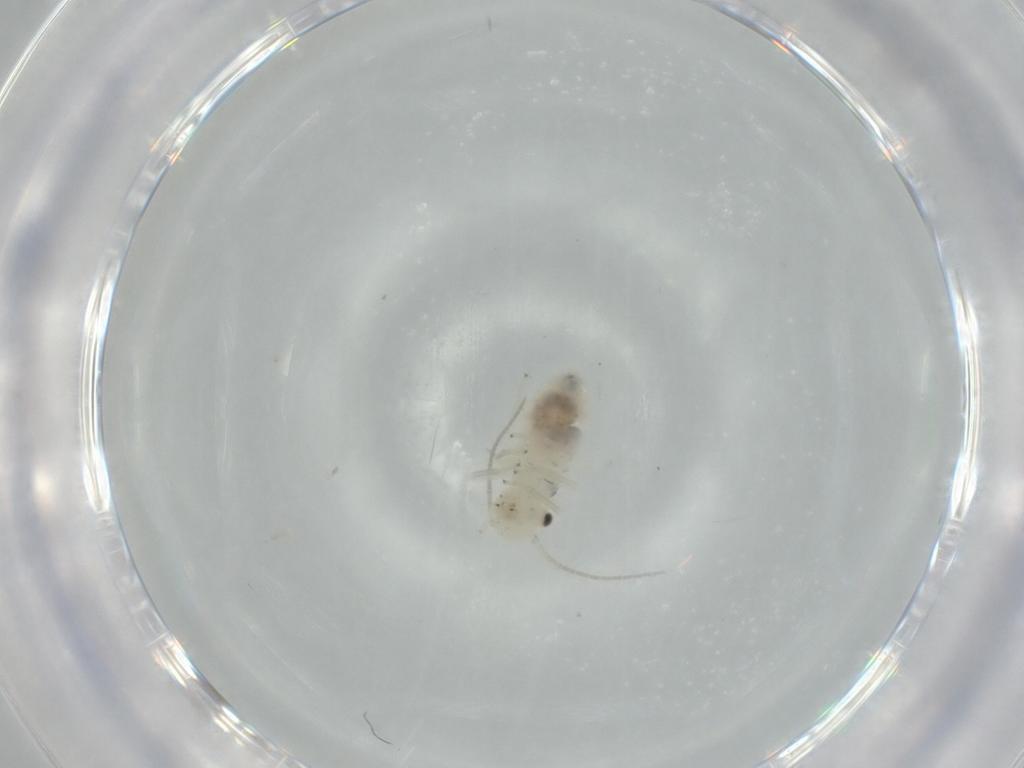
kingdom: Animalia
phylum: Arthropoda
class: Insecta
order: Psocodea
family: Caeciliusidae
